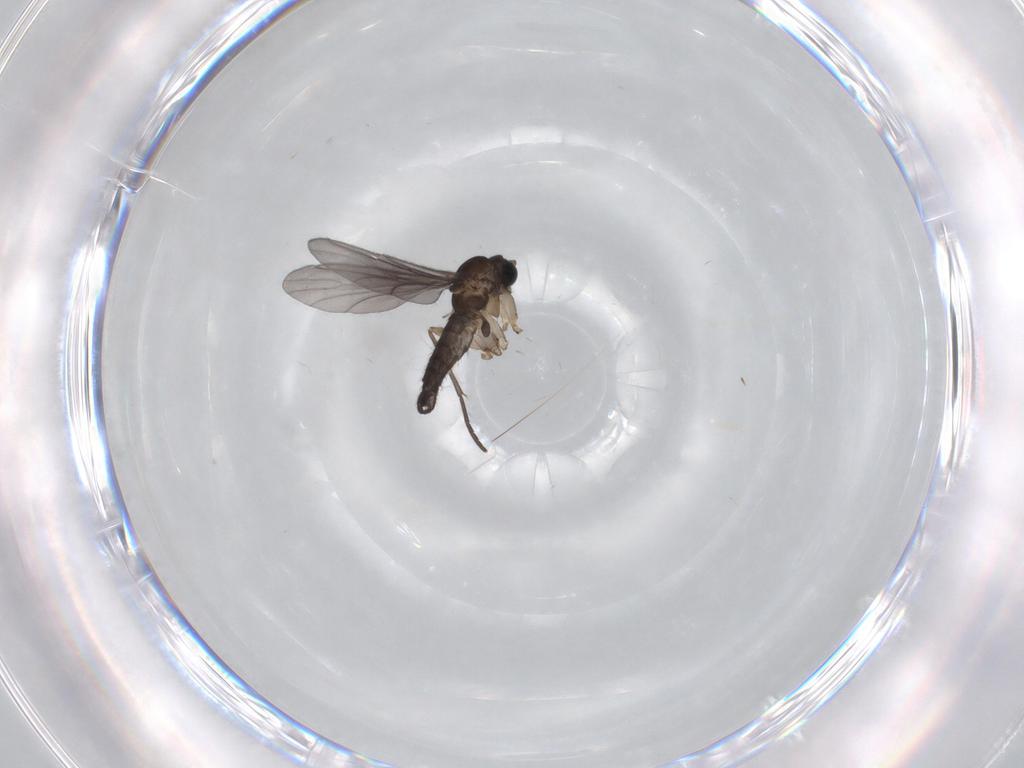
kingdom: Animalia
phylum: Arthropoda
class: Insecta
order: Diptera
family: Sciaridae
